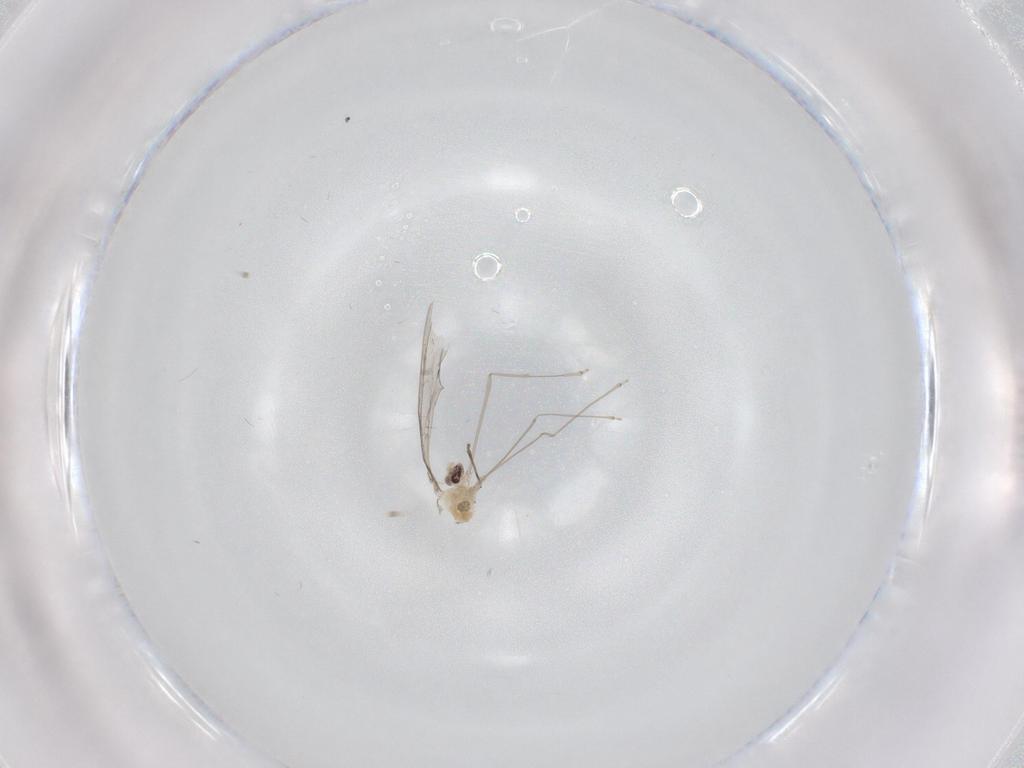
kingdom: Animalia
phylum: Arthropoda
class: Insecta
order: Diptera
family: Cecidomyiidae
